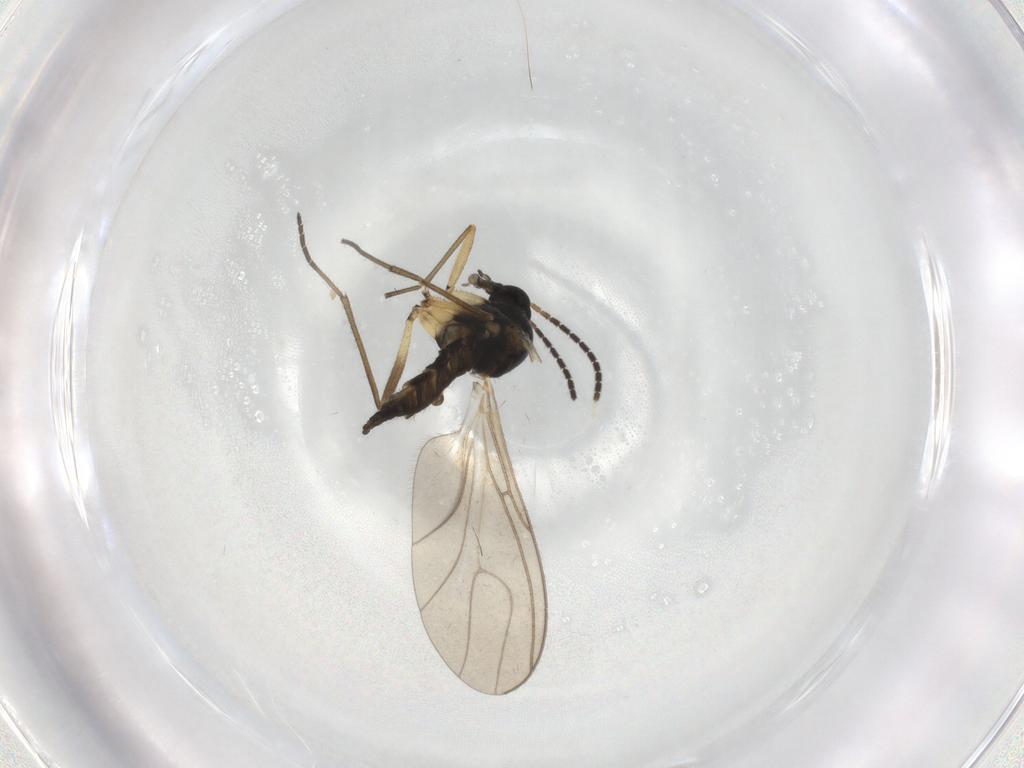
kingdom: Animalia
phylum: Arthropoda
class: Insecta
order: Diptera
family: Sciaridae
